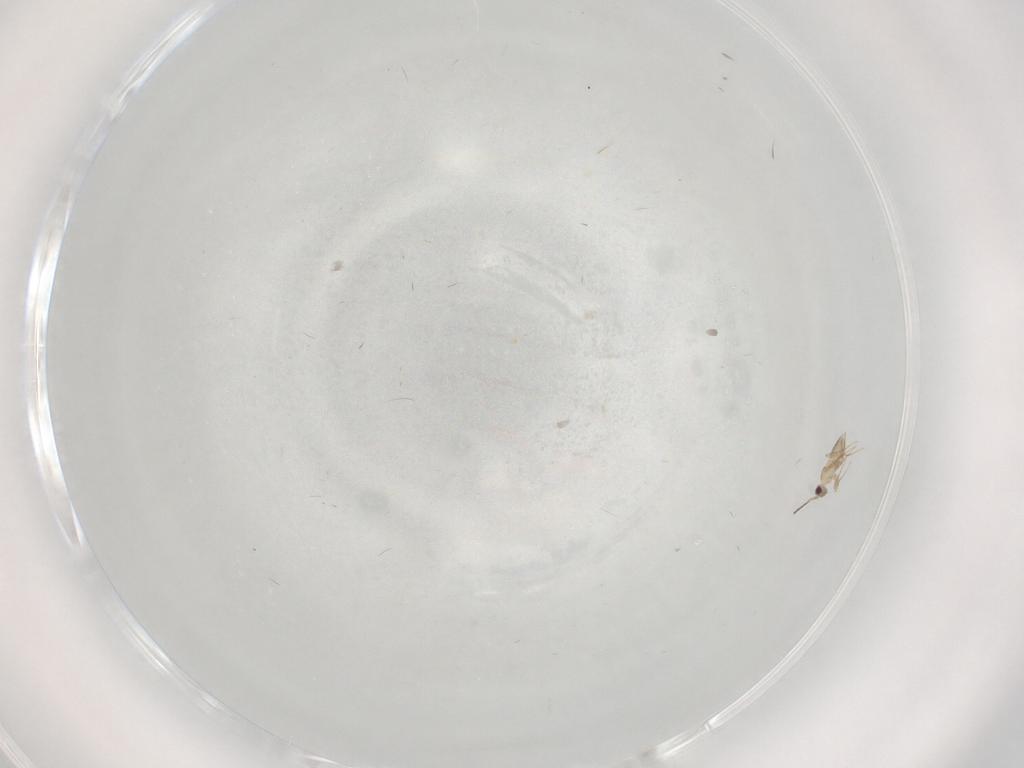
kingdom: Animalia
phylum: Arthropoda
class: Insecta
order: Hymenoptera
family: Mymaridae
